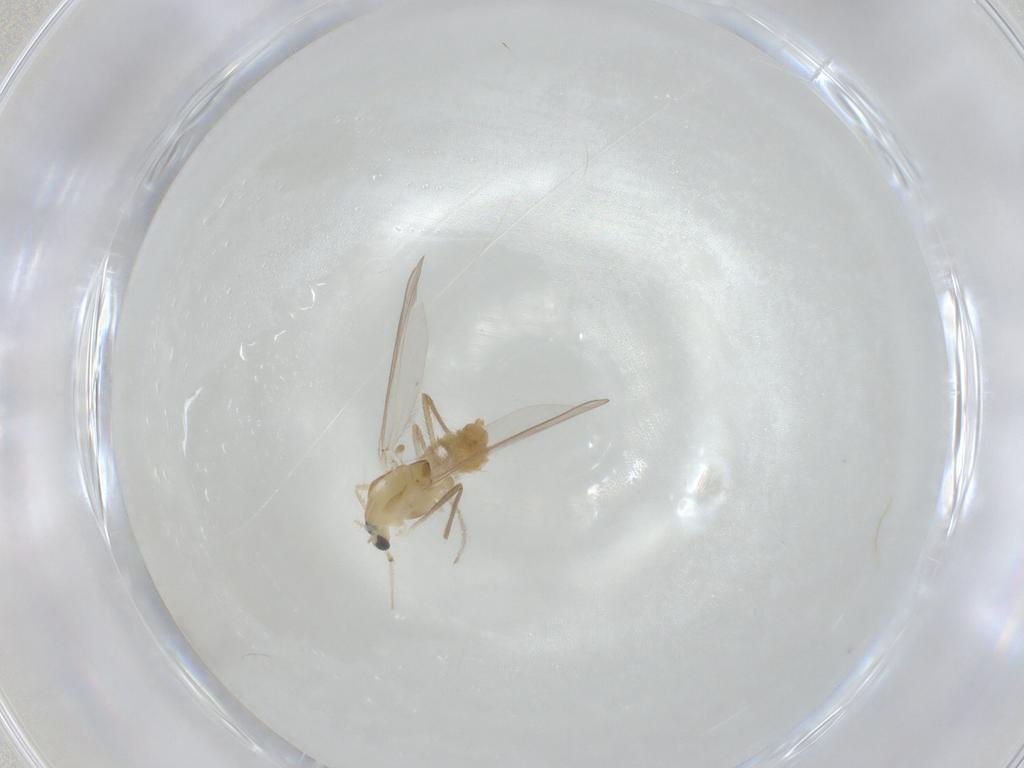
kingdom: Animalia
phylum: Arthropoda
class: Insecta
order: Diptera
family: Chironomidae
